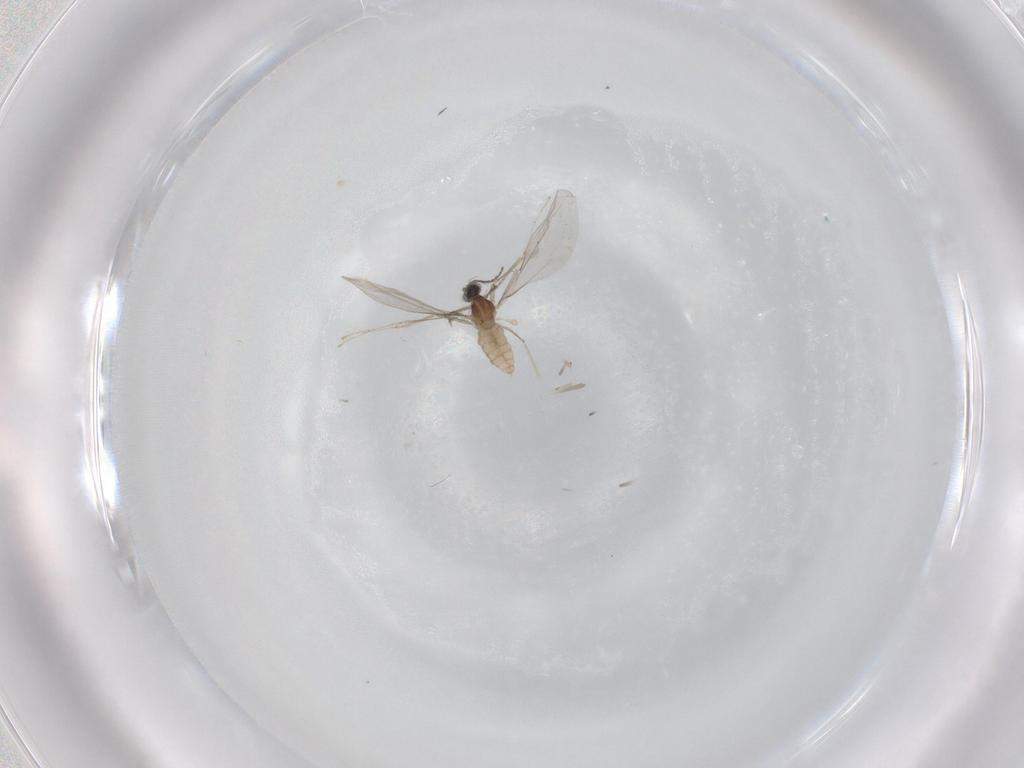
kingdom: Animalia
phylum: Arthropoda
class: Insecta
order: Diptera
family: Cecidomyiidae
